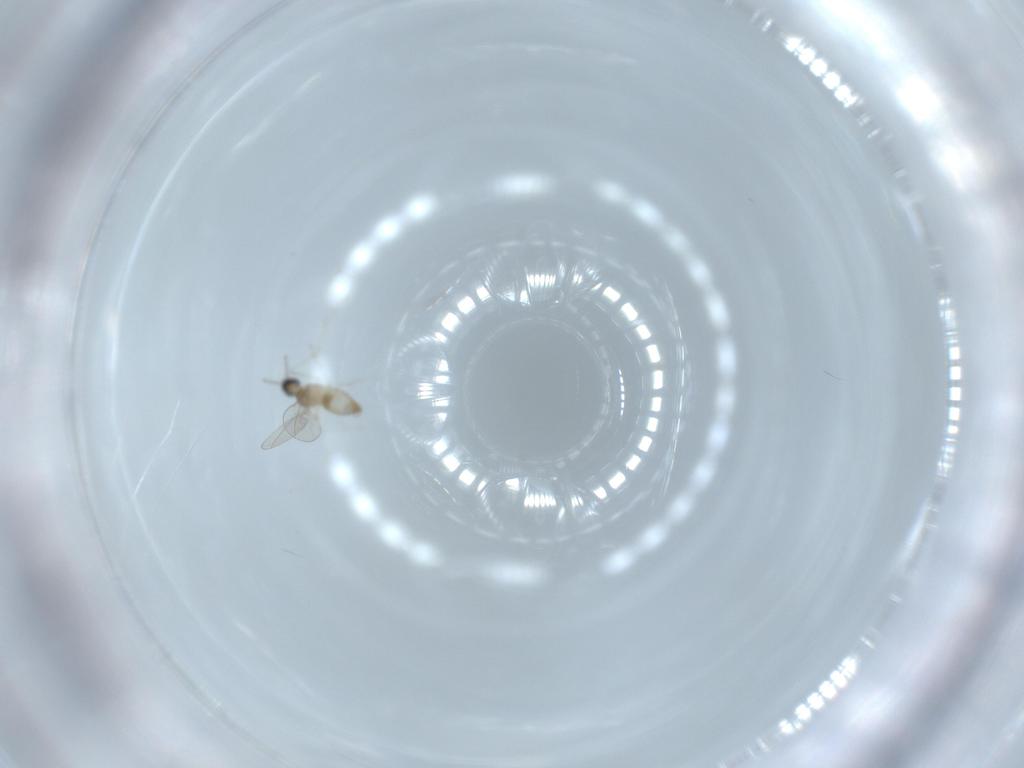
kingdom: Animalia
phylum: Arthropoda
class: Insecta
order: Diptera
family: Cecidomyiidae
